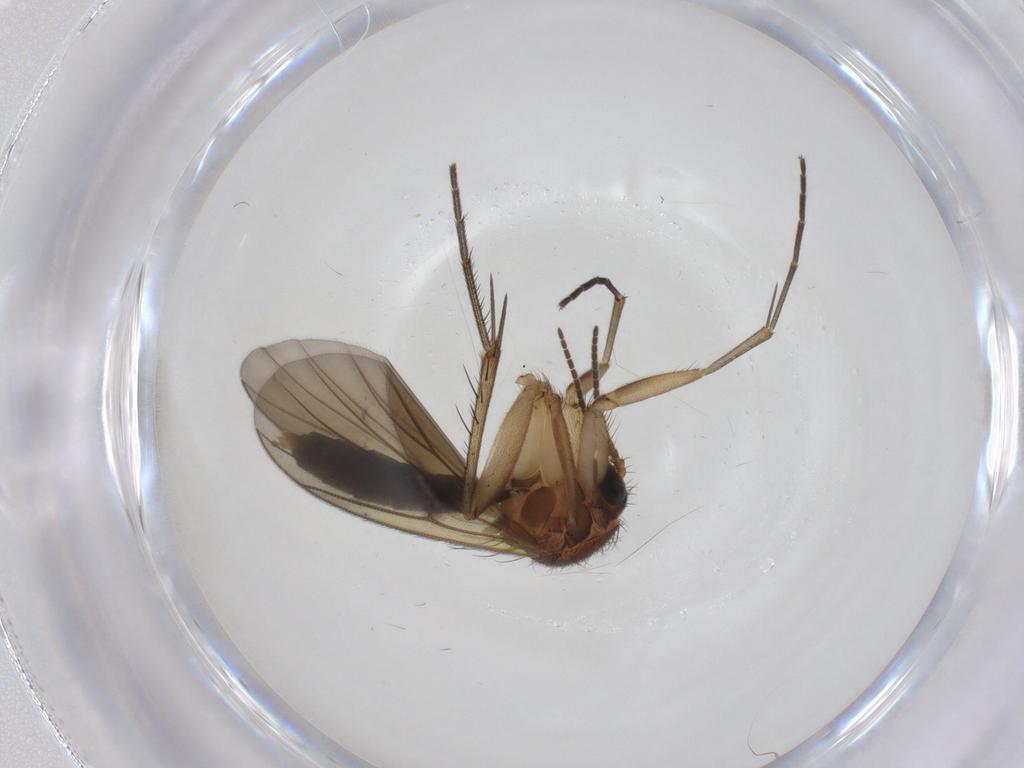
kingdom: Animalia
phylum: Arthropoda
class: Insecta
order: Diptera
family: Mycetophilidae
